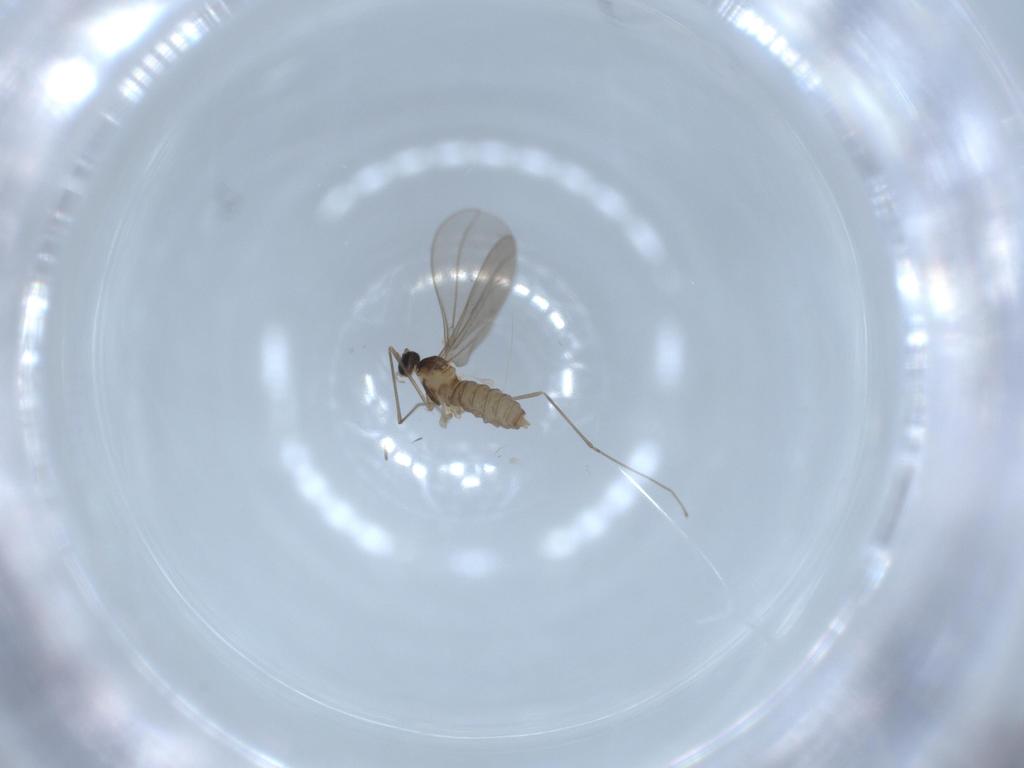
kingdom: Animalia
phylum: Arthropoda
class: Insecta
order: Diptera
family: Cecidomyiidae
